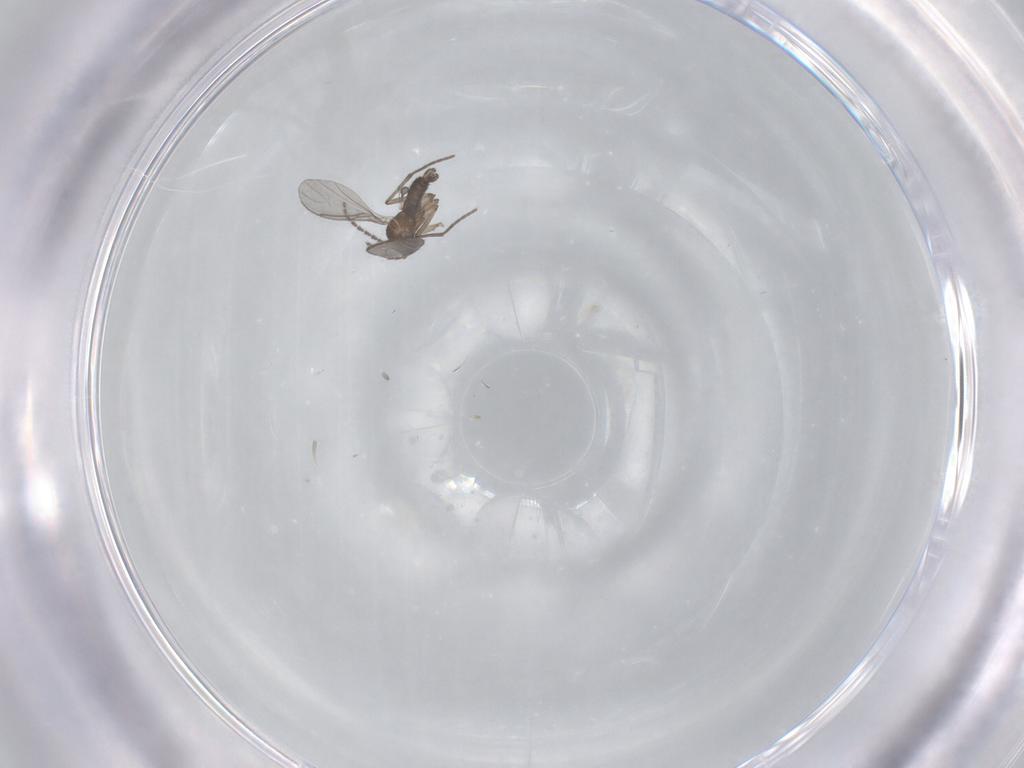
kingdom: Animalia
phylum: Arthropoda
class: Insecta
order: Diptera
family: Sciaridae
